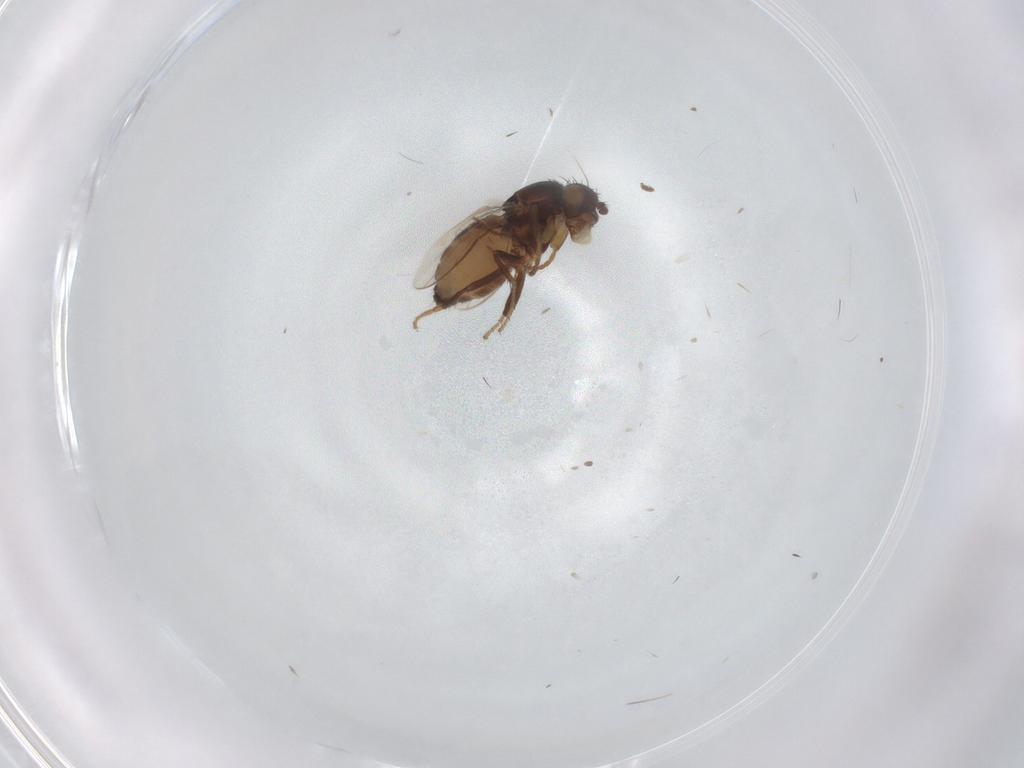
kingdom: Animalia
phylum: Arthropoda
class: Insecta
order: Diptera
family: Sphaeroceridae
